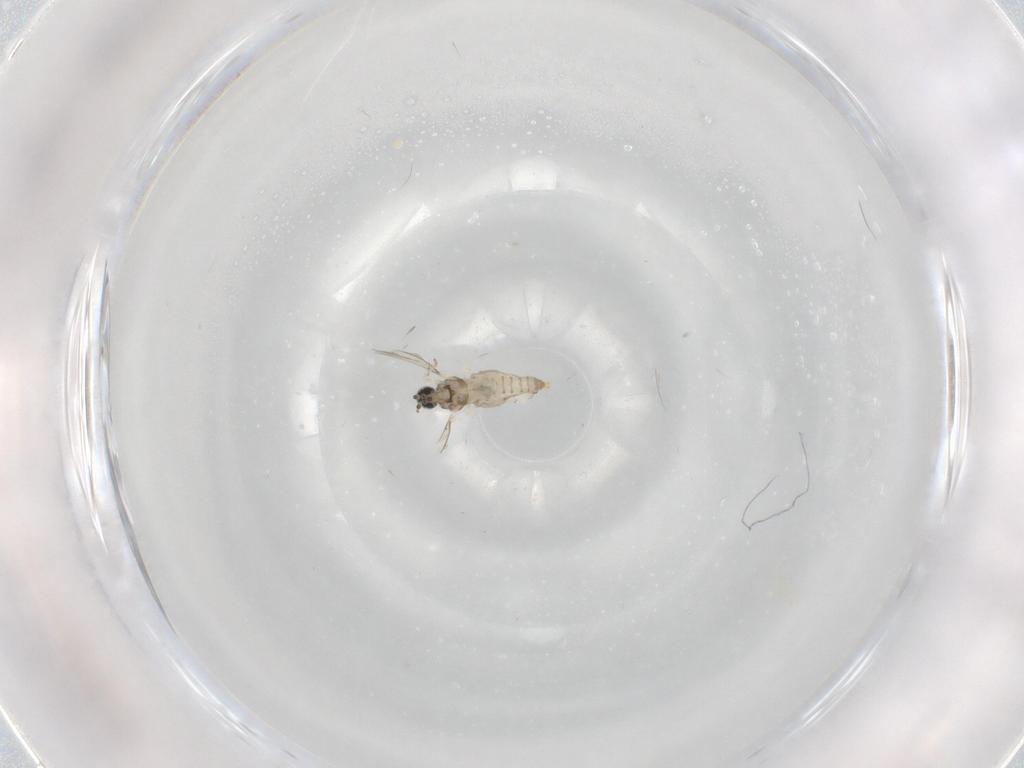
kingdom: Animalia
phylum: Arthropoda
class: Insecta
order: Diptera
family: Cecidomyiidae
